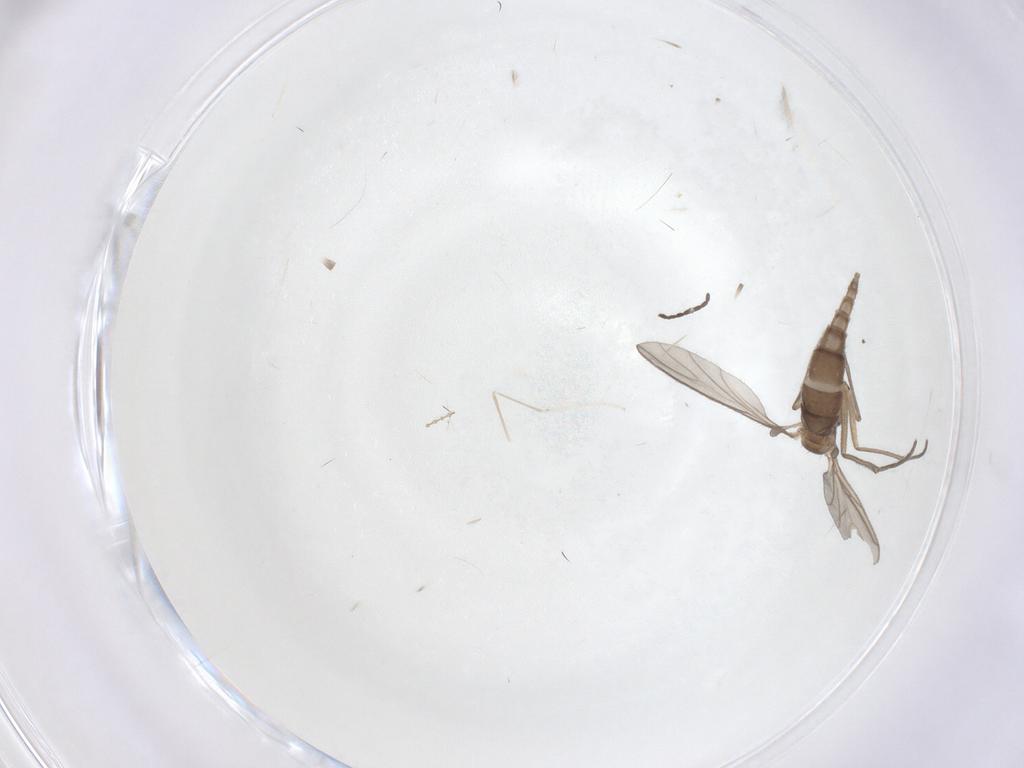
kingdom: Animalia
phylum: Arthropoda
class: Insecta
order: Diptera
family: Sciaridae
